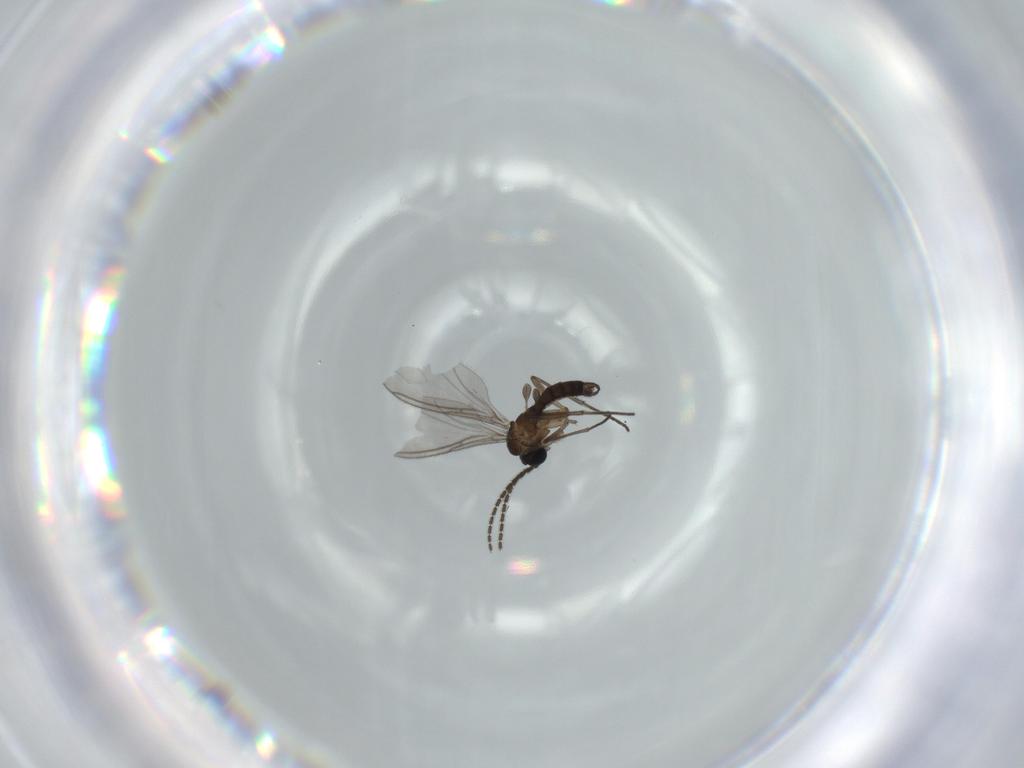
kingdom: Animalia
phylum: Arthropoda
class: Insecta
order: Diptera
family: Sciaridae
